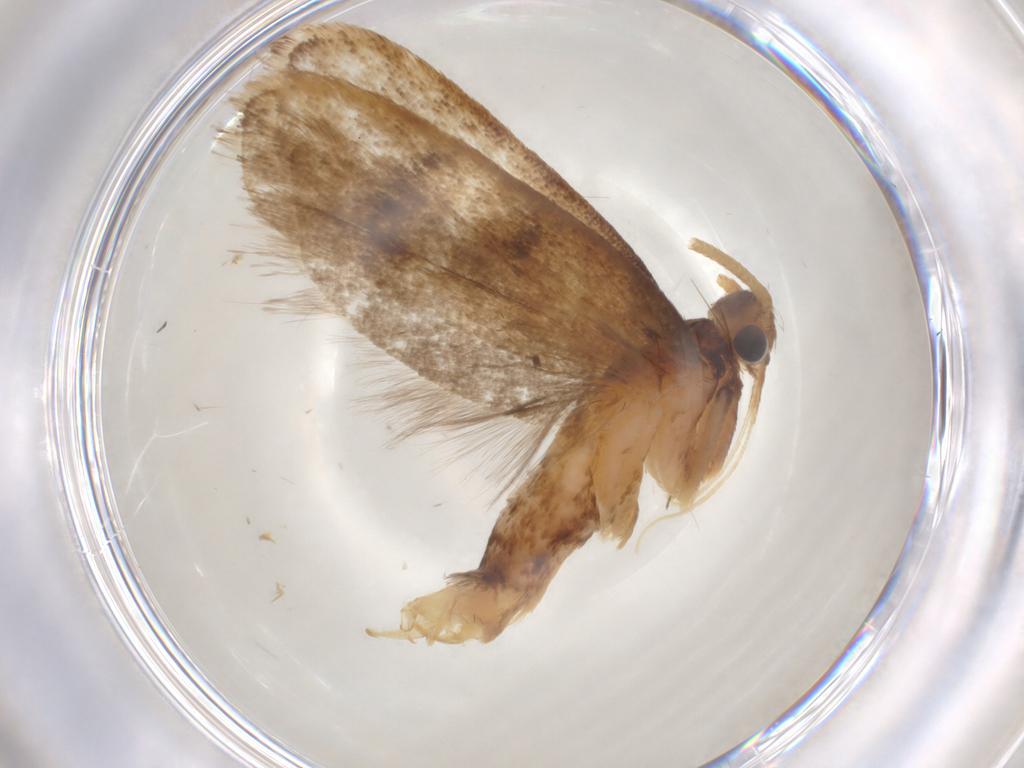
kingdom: Animalia
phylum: Arthropoda
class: Insecta
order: Lepidoptera
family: Lecithoceridae
